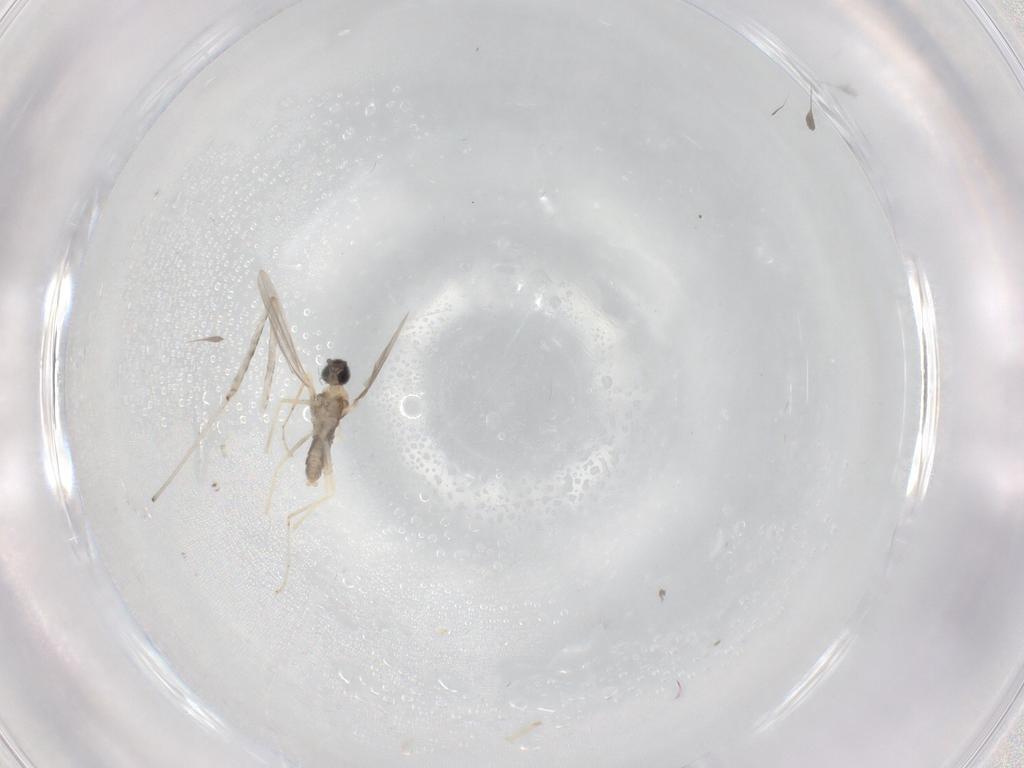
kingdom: Animalia
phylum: Arthropoda
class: Insecta
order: Diptera
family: Cecidomyiidae
